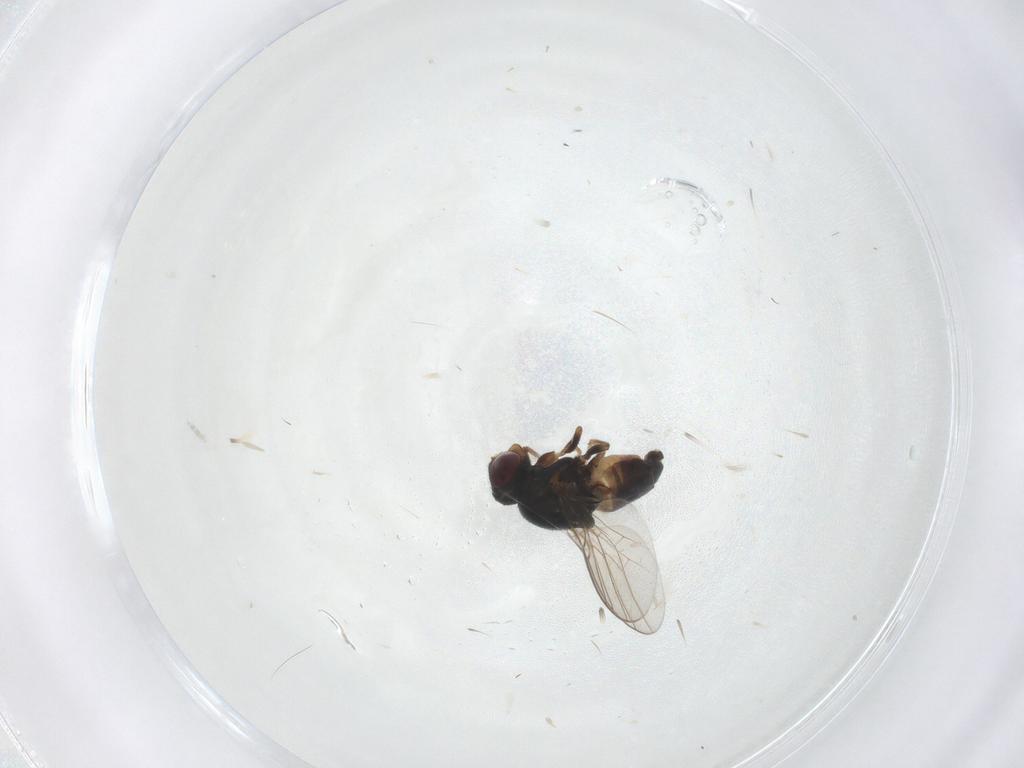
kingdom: Animalia
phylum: Arthropoda
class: Insecta
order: Diptera
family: Chloropidae
